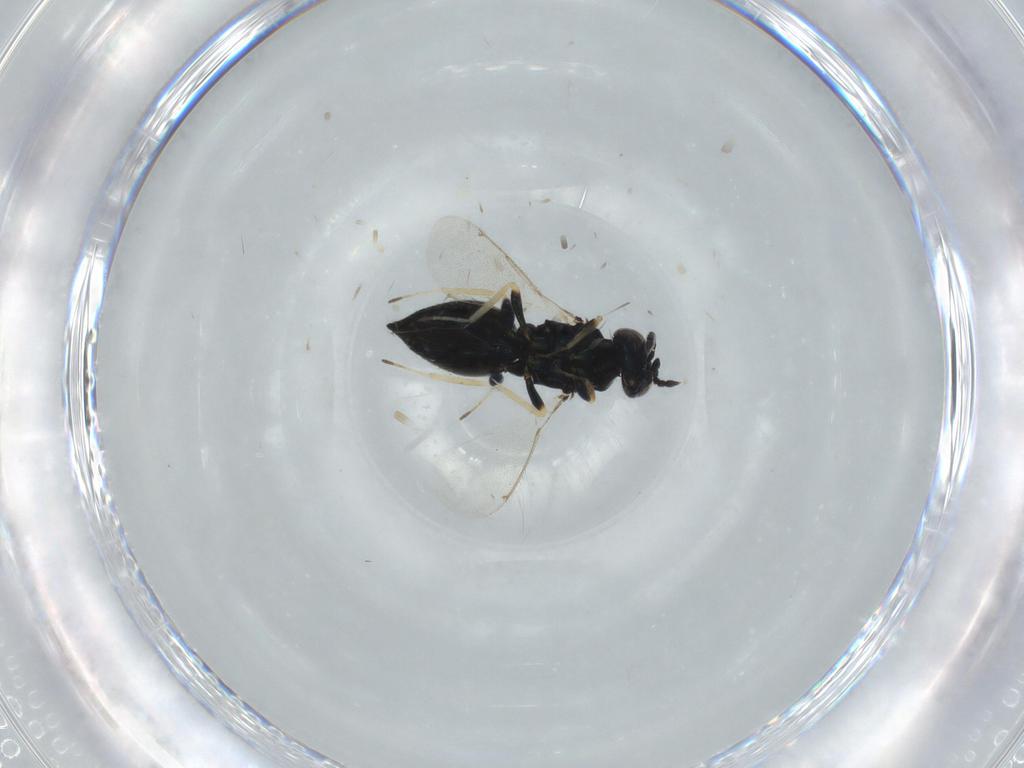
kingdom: Animalia
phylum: Arthropoda
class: Insecta
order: Hymenoptera
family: Eulophidae
